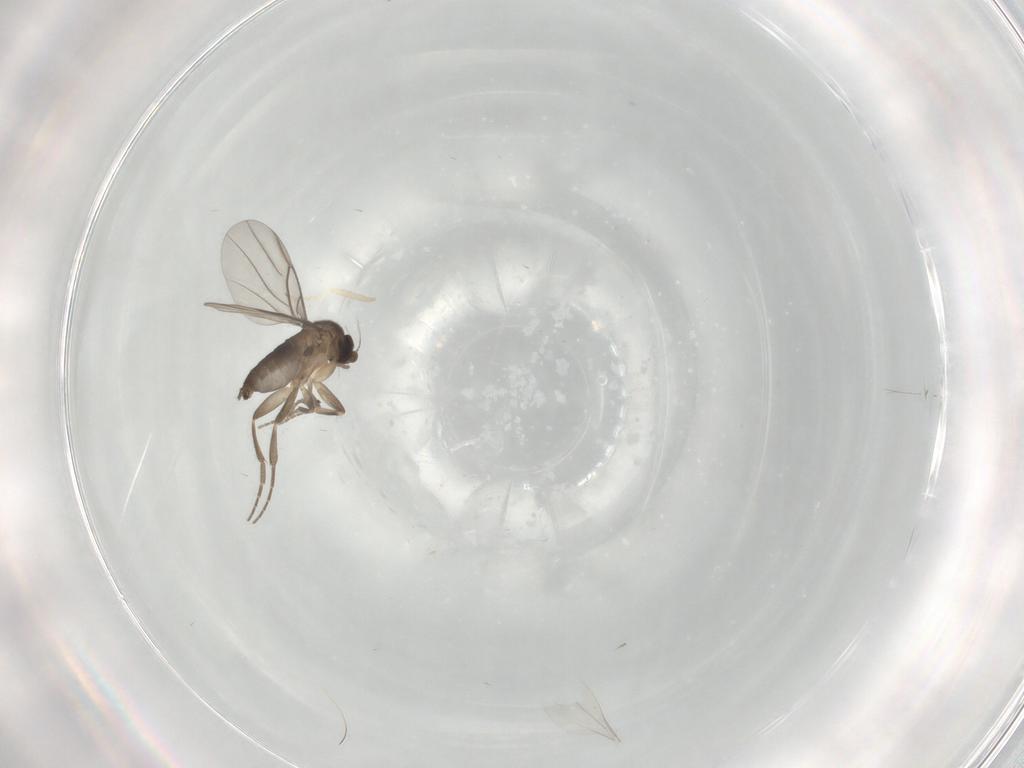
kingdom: Animalia
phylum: Arthropoda
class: Insecta
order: Diptera
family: Cecidomyiidae
